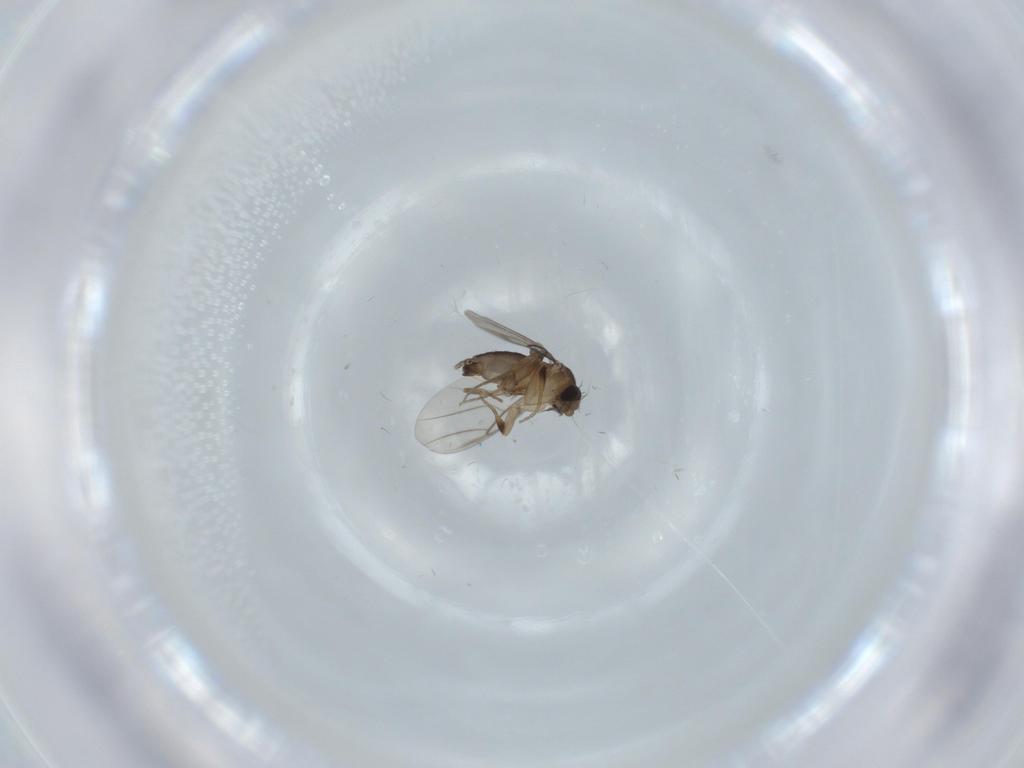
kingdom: Animalia
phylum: Arthropoda
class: Insecta
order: Diptera
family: Phoridae
